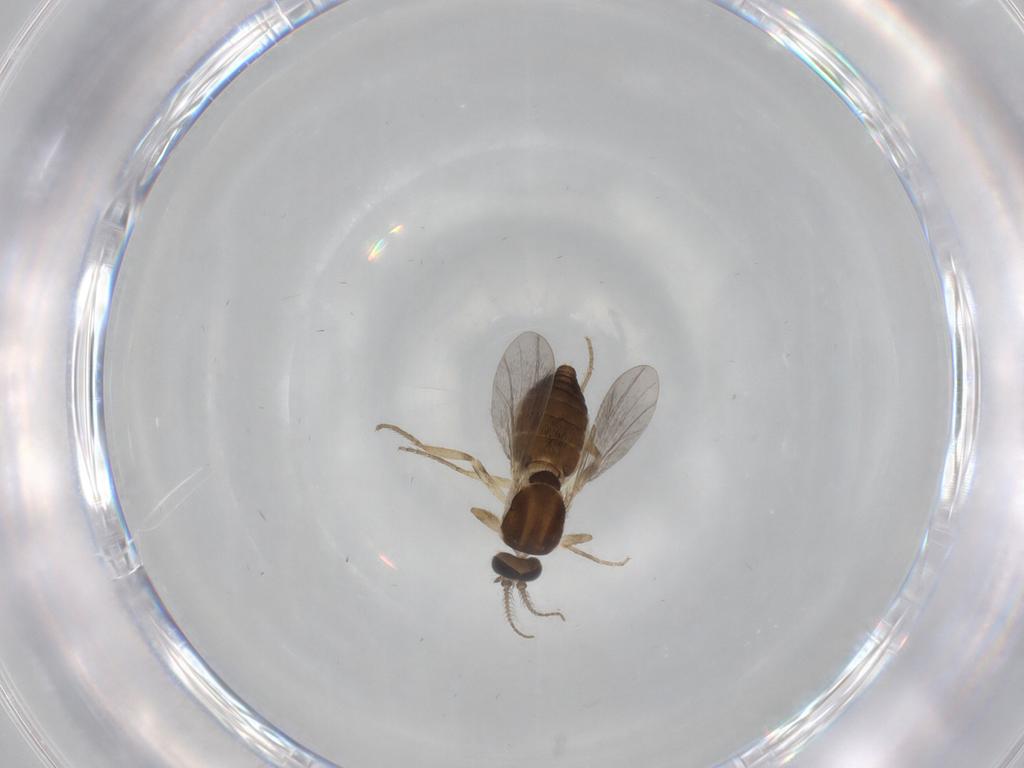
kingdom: Animalia
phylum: Arthropoda
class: Insecta
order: Diptera
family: Ceratopogonidae
